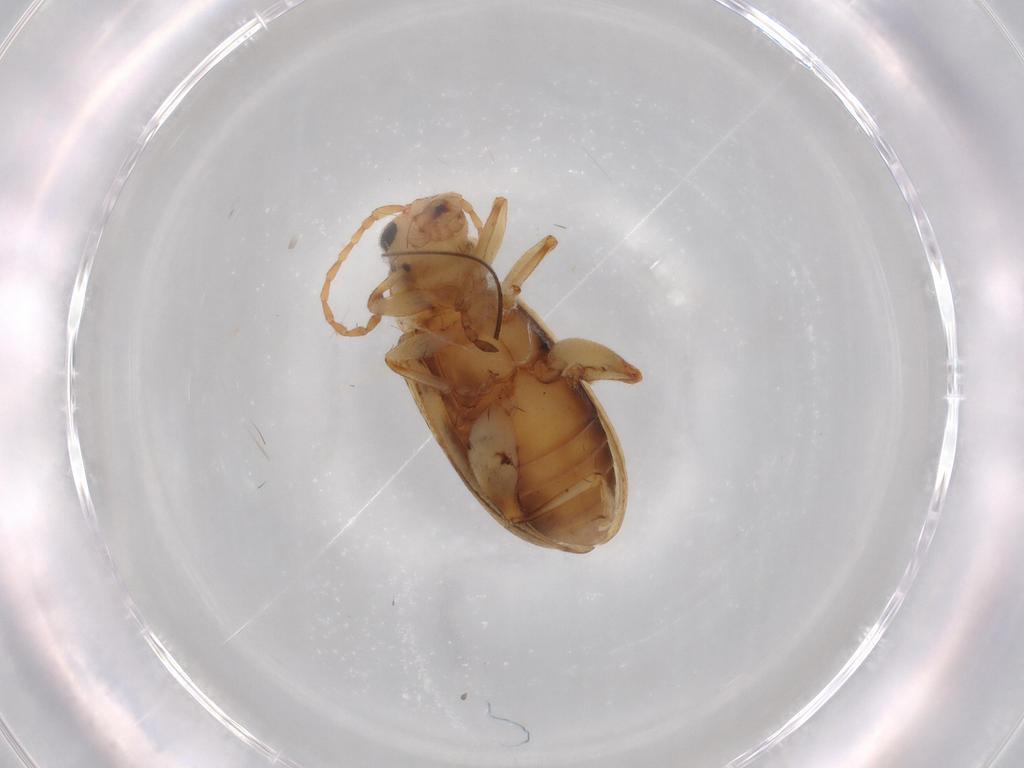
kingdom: Animalia
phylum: Arthropoda
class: Insecta
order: Coleoptera
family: Chrysomelidae
